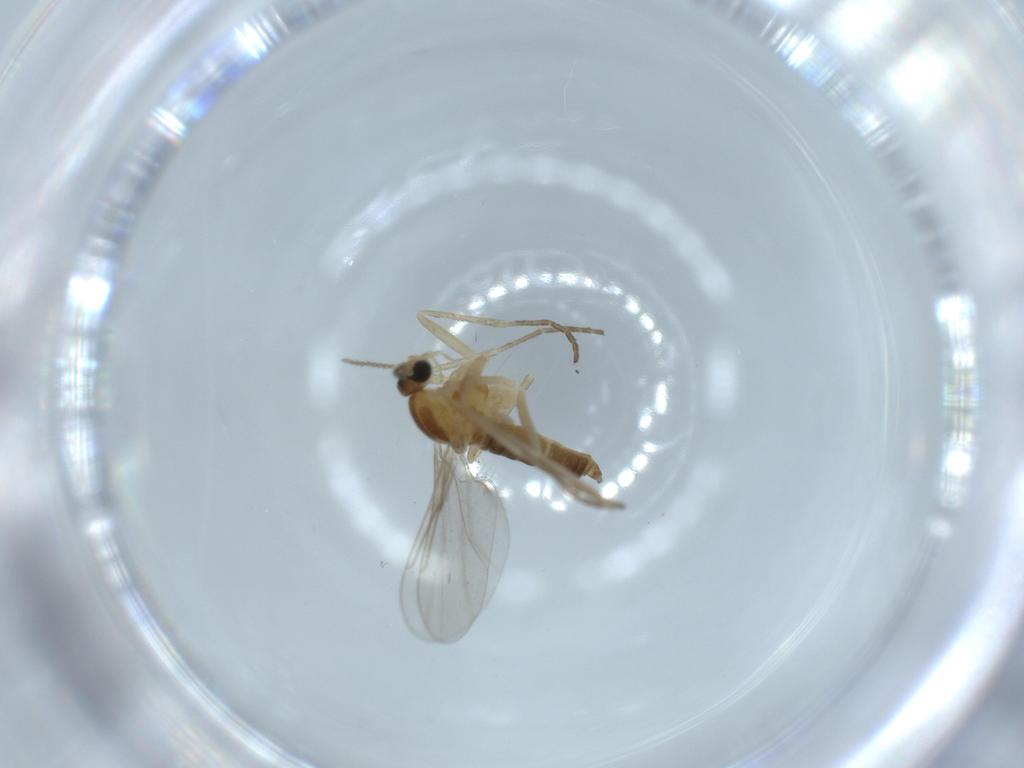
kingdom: Animalia
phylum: Arthropoda
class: Insecta
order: Diptera
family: Cecidomyiidae
